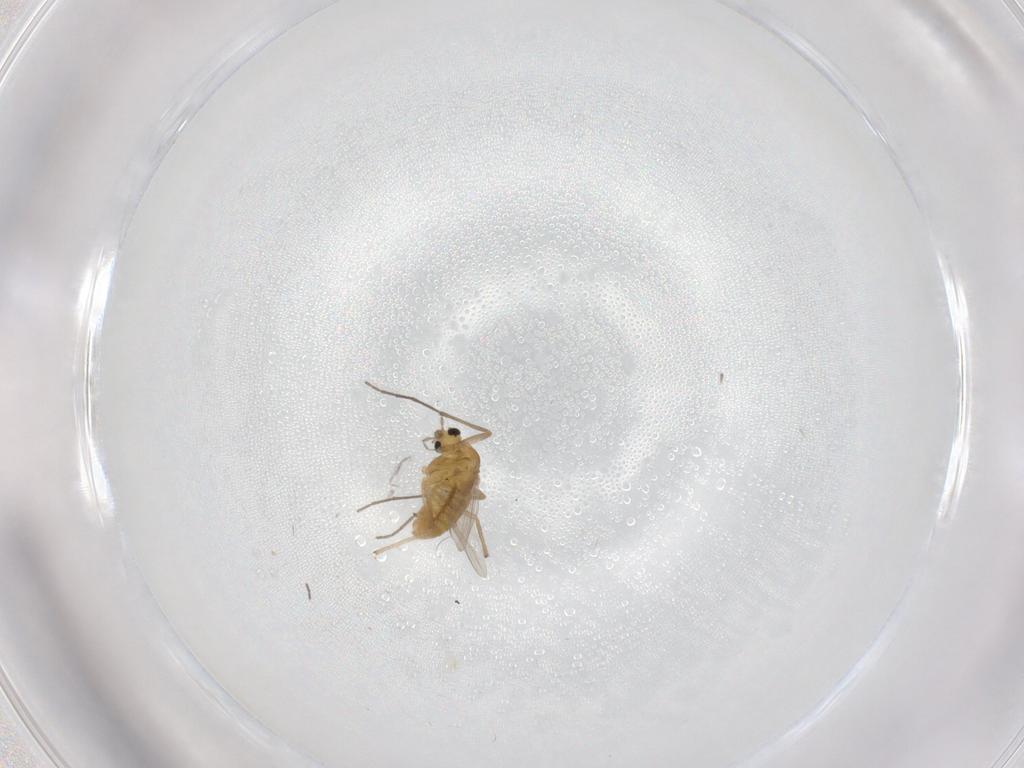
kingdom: Animalia
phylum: Arthropoda
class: Insecta
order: Diptera
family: Chironomidae
